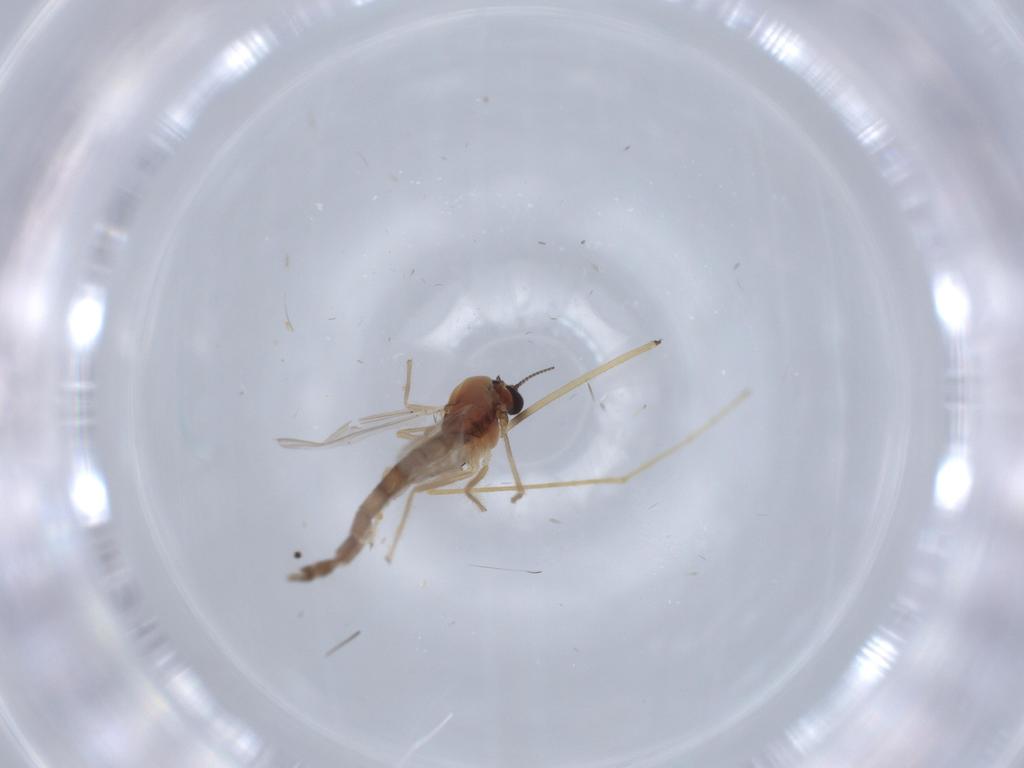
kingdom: Animalia
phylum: Arthropoda
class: Insecta
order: Diptera
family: Chironomidae
